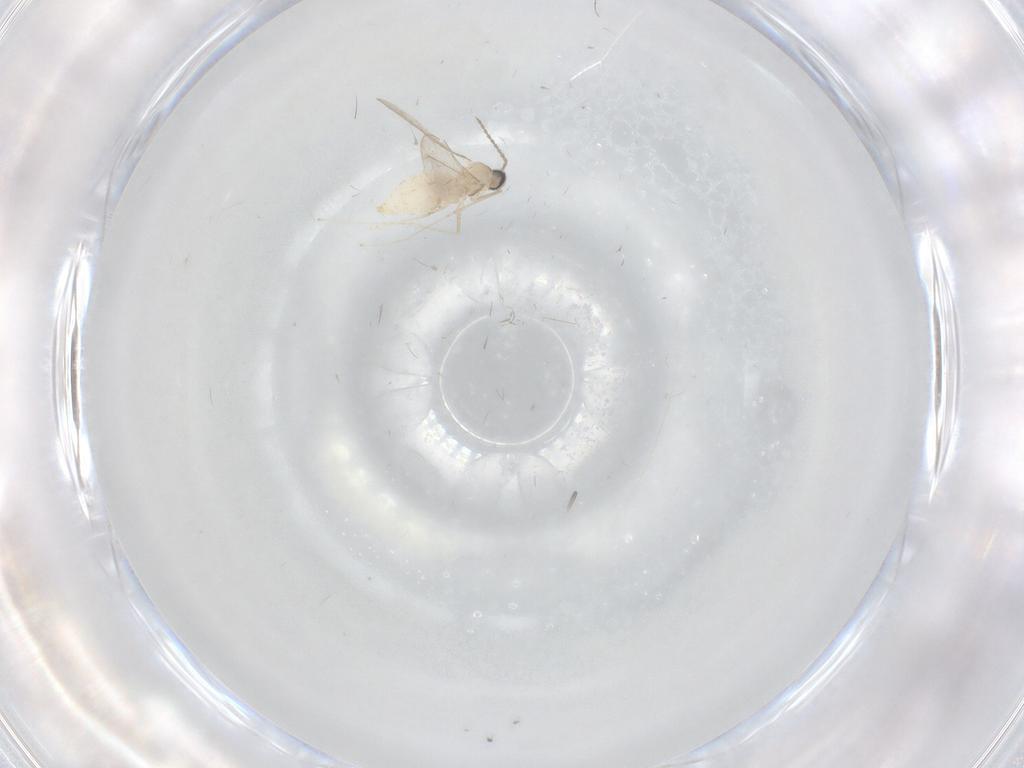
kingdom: Animalia
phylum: Arthropoda
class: Insecta
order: Diptera
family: Cecidomyiidae
